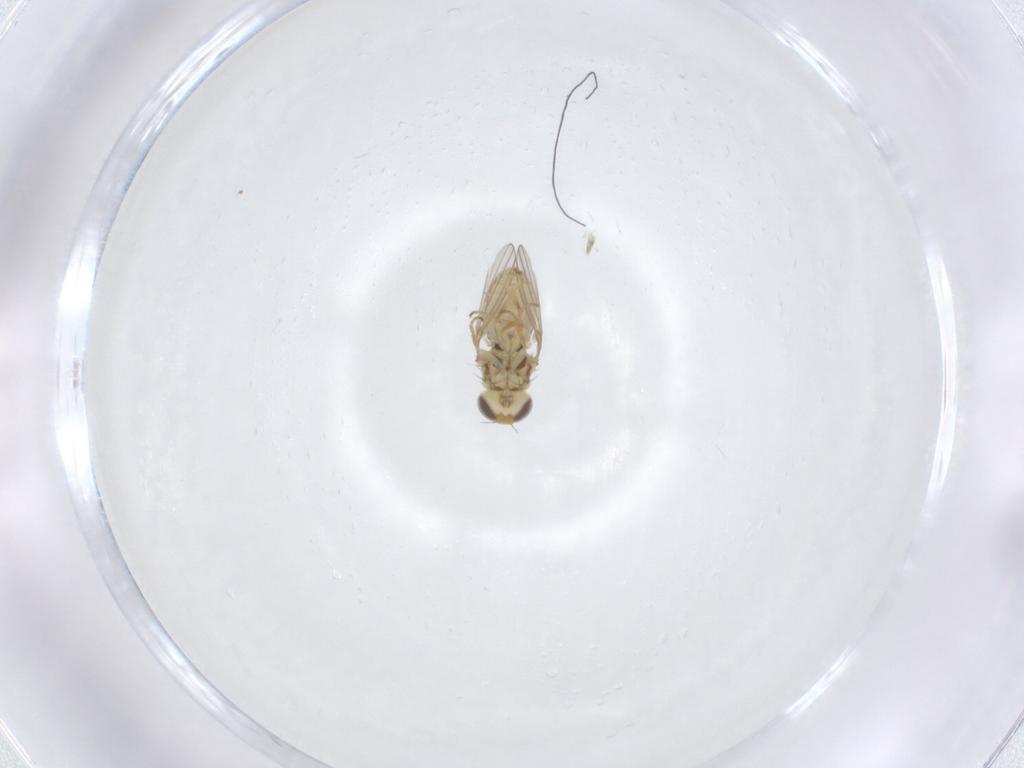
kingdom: Animalia
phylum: Arthropoda
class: Insecta
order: Diptera
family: Chyromyidae
